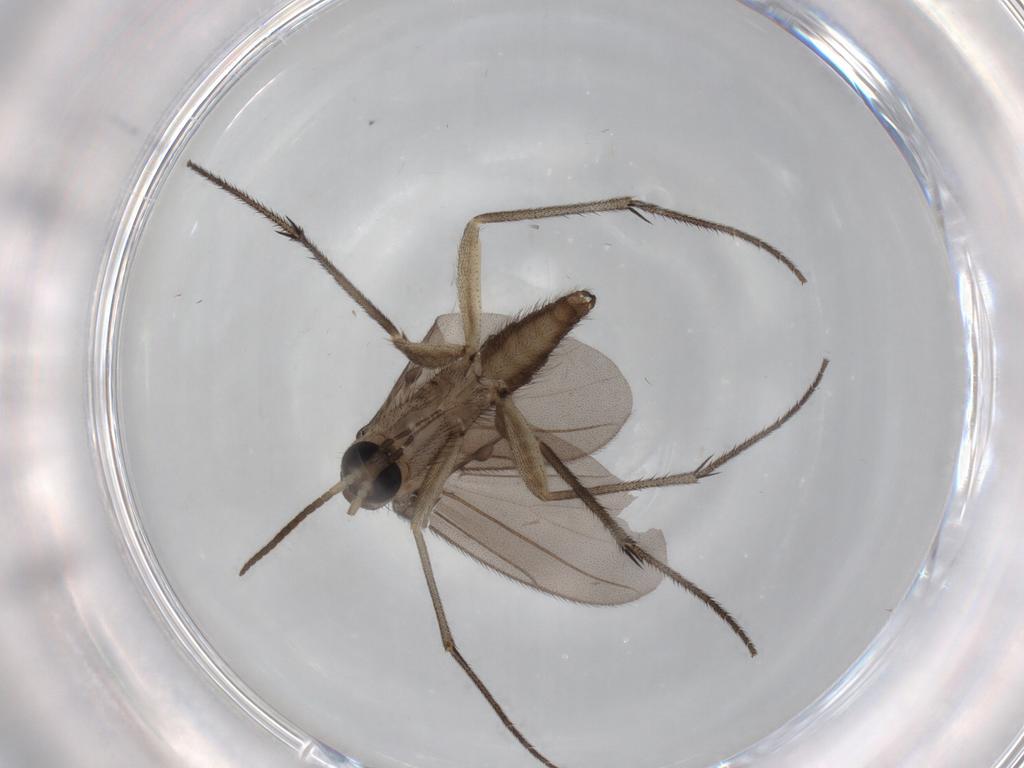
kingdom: Animalia
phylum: Arthropoda
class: Insecta
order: Diptera
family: Diadocidiidae
